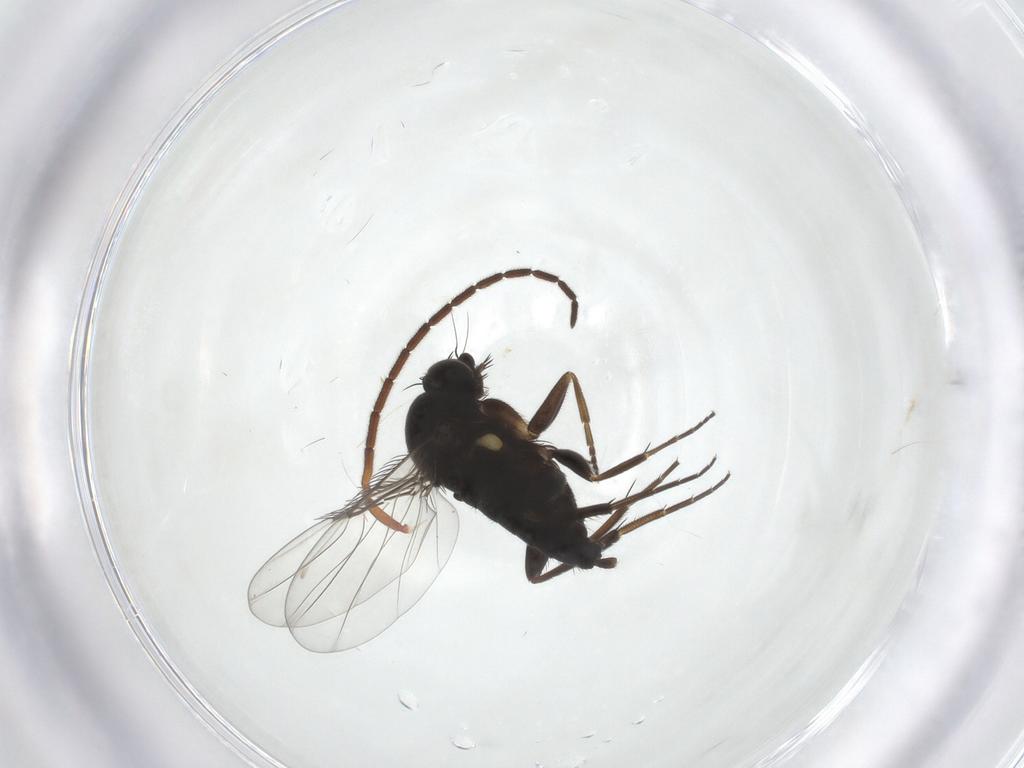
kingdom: Animalia
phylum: Arthropoda
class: Insecta
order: Diptera
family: Phoridae
